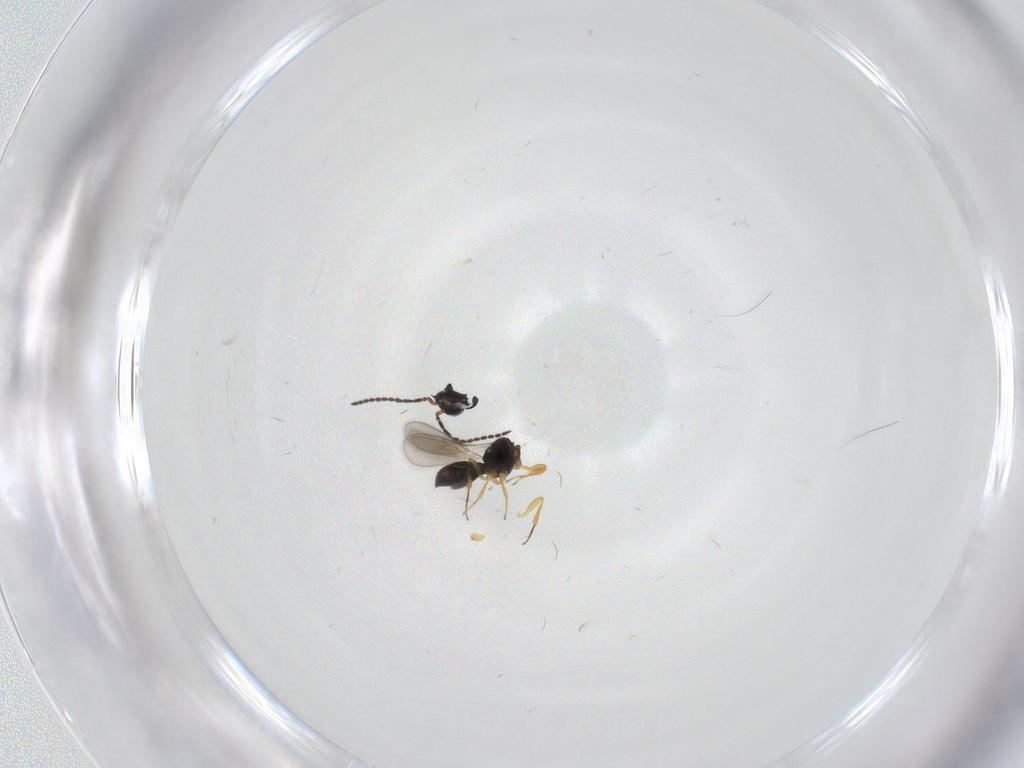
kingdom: Animalia
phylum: Arthropoda
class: Insecta
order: Hymenoptera
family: Scelionidae
